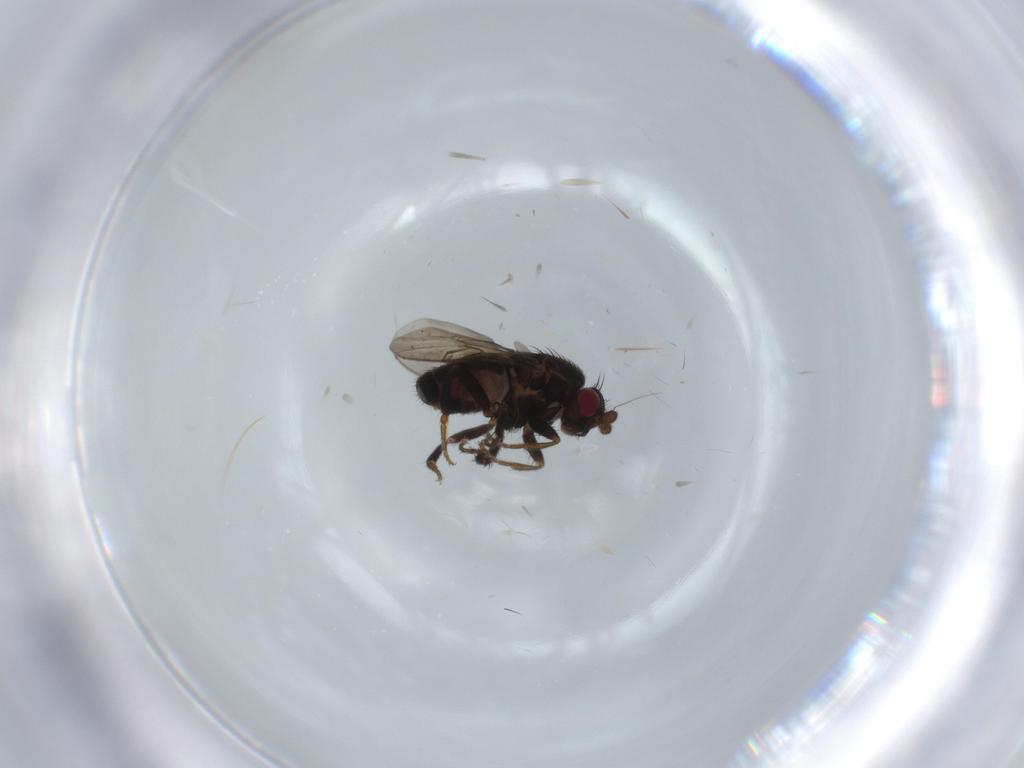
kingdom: Animalia
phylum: Arthropoda
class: Insecta
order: Diptera
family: Sphaeroceridae
